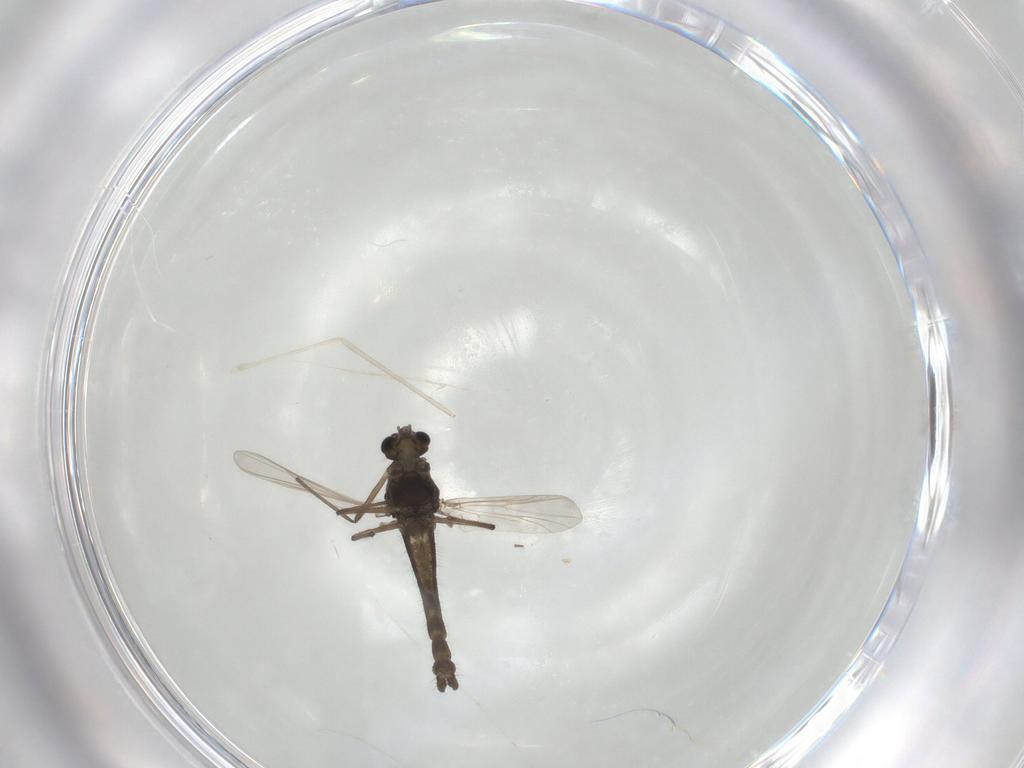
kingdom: Animalia
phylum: Arthropoda
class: Insecta
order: Diptera
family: Chironomidae
